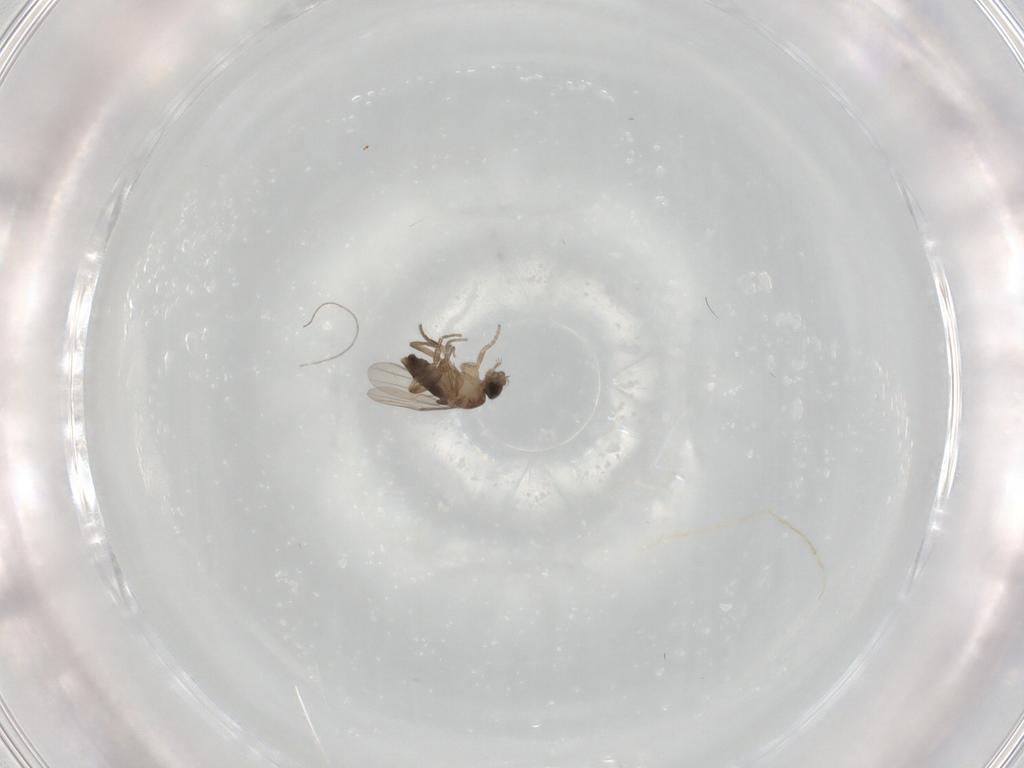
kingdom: Animalia
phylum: Arthropoda
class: Insecta
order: Diptera
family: Phoridae
